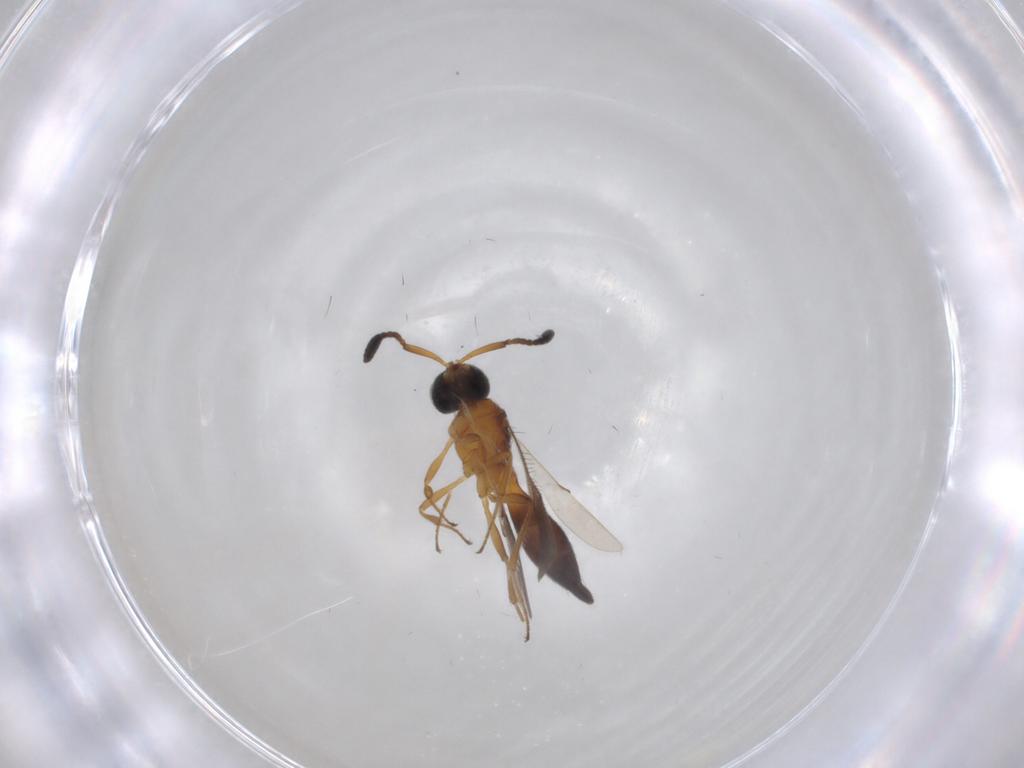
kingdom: Animalia
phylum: Arthropoda
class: Insecta
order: Hymenoptera
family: Scelionidae
